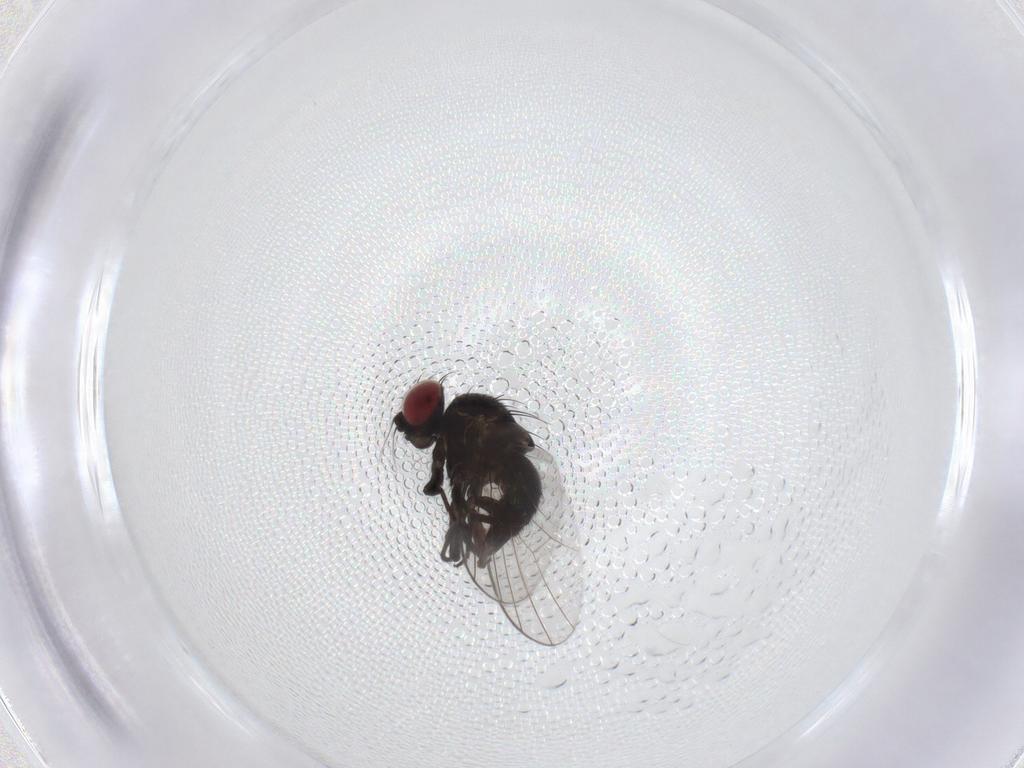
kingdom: Animalia
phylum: Arthropoda
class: Insecta
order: Diptera
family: Agromyzidae
